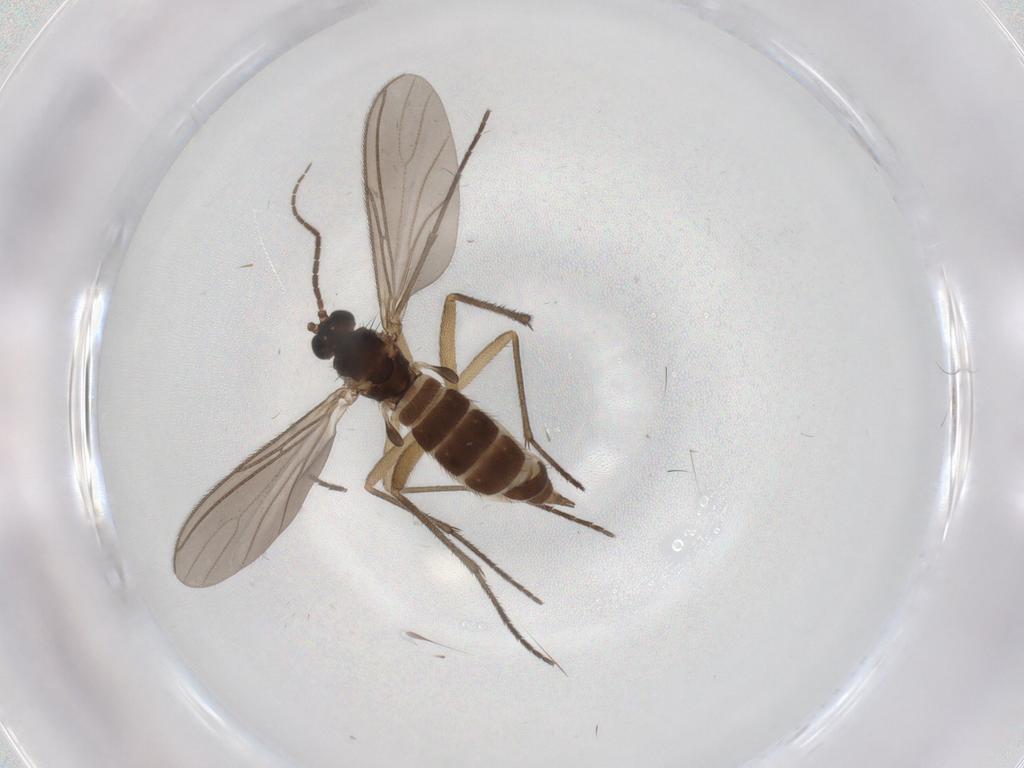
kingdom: Animalia
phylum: Arthropoda
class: Insecta
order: Diptera
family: Sciaridae
